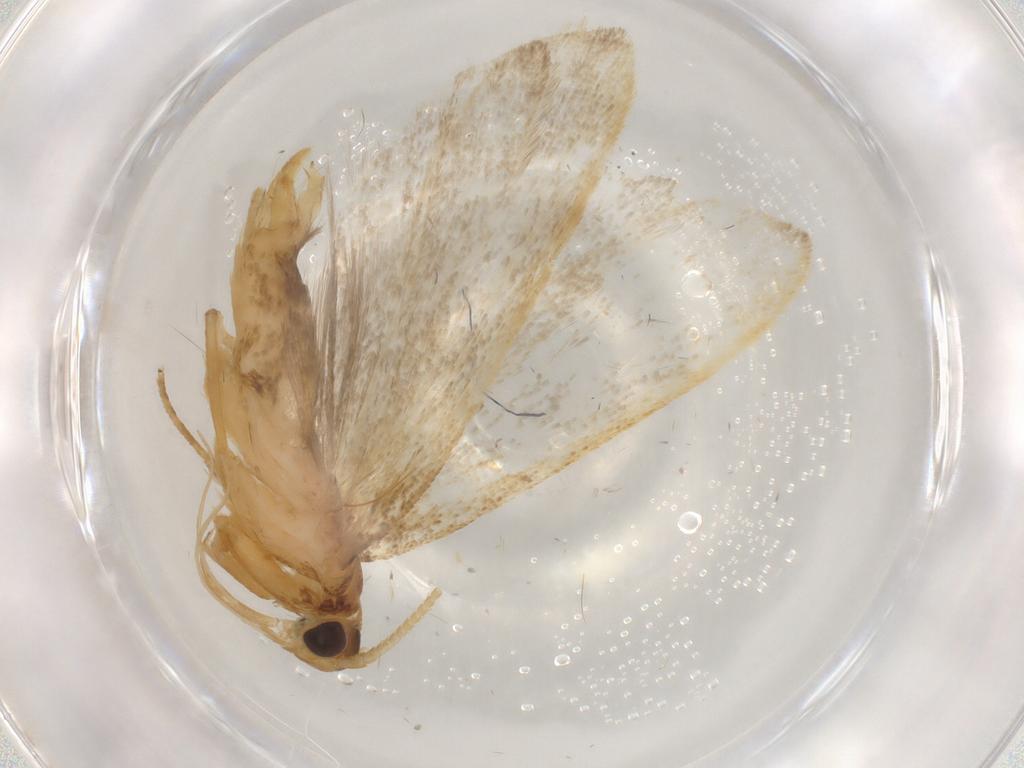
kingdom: Animalia
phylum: Arthropoda
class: Insecta
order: Lepidoptera
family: Lecithoceridae
